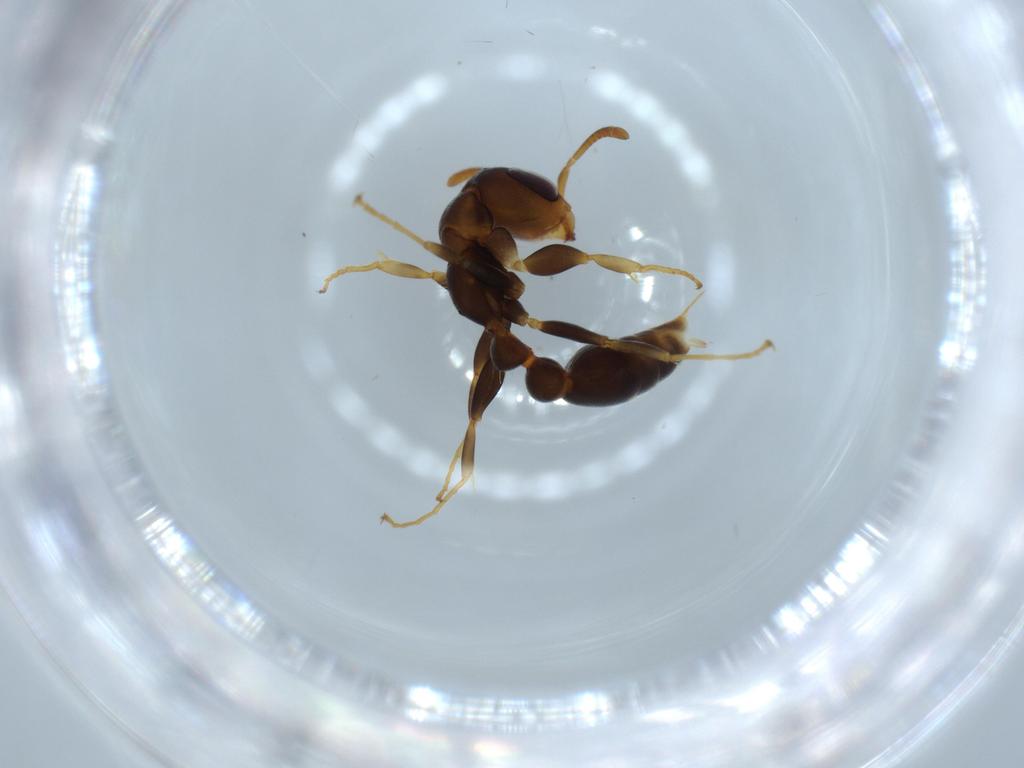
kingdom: Animalia
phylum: Arthropoda
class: Insecta
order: Hymenoptera
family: Formicidae
